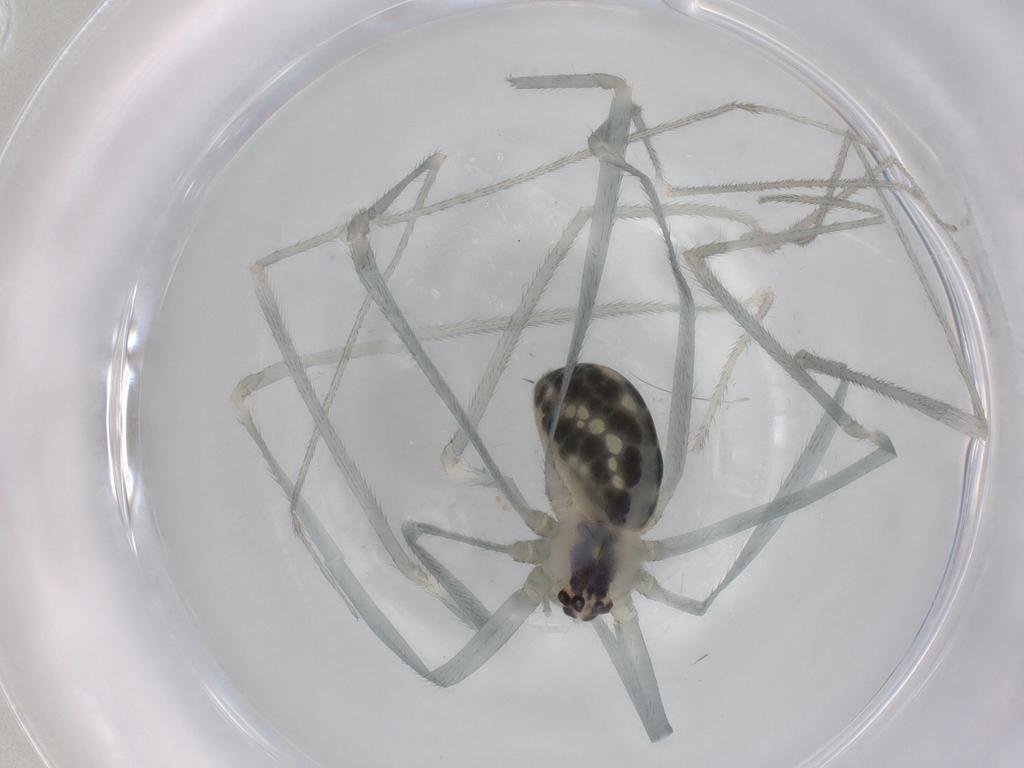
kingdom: Animalia
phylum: Arthropoda
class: Arachnida
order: Araneae
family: Pholcidae
